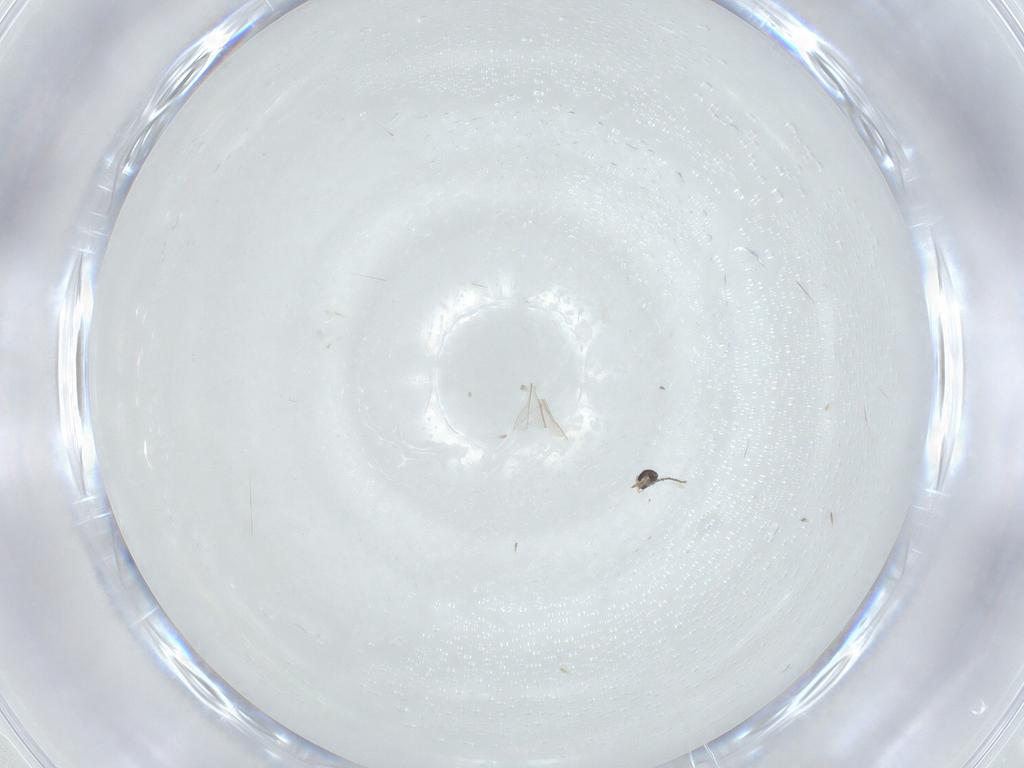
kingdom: Animalia
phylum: Arthropoda
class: Insecta
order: Diptera
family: Cecidomyiidae
